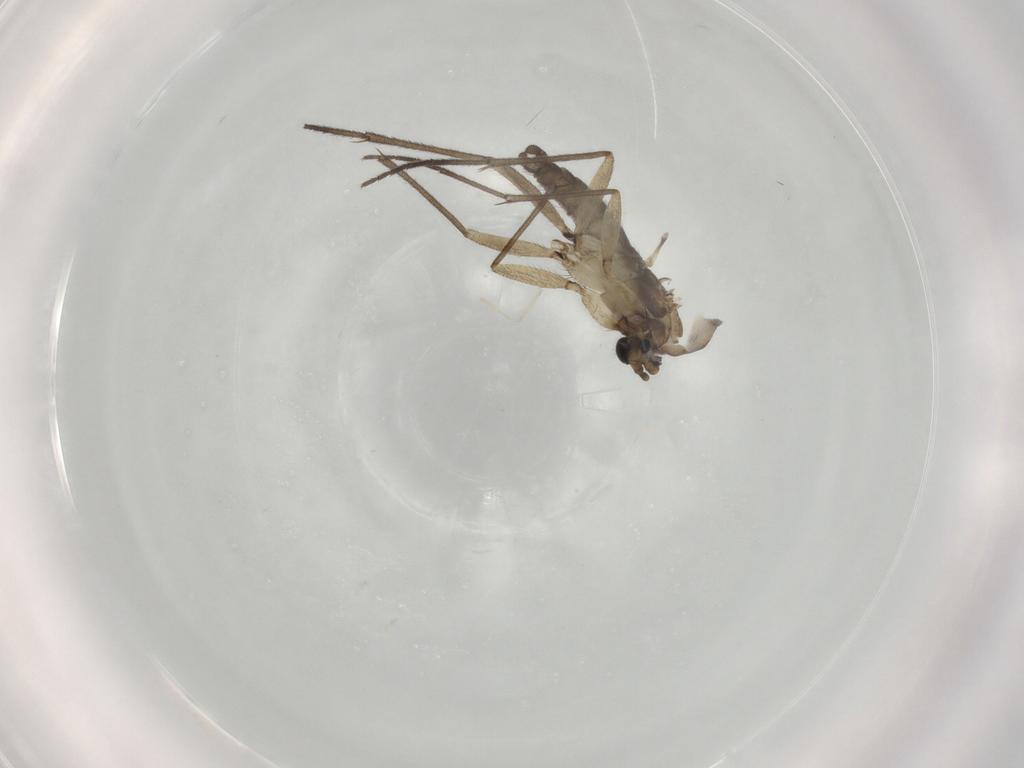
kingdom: Animalia
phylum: Arthropoda
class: Insecta
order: Diptera
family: Sciaridae
